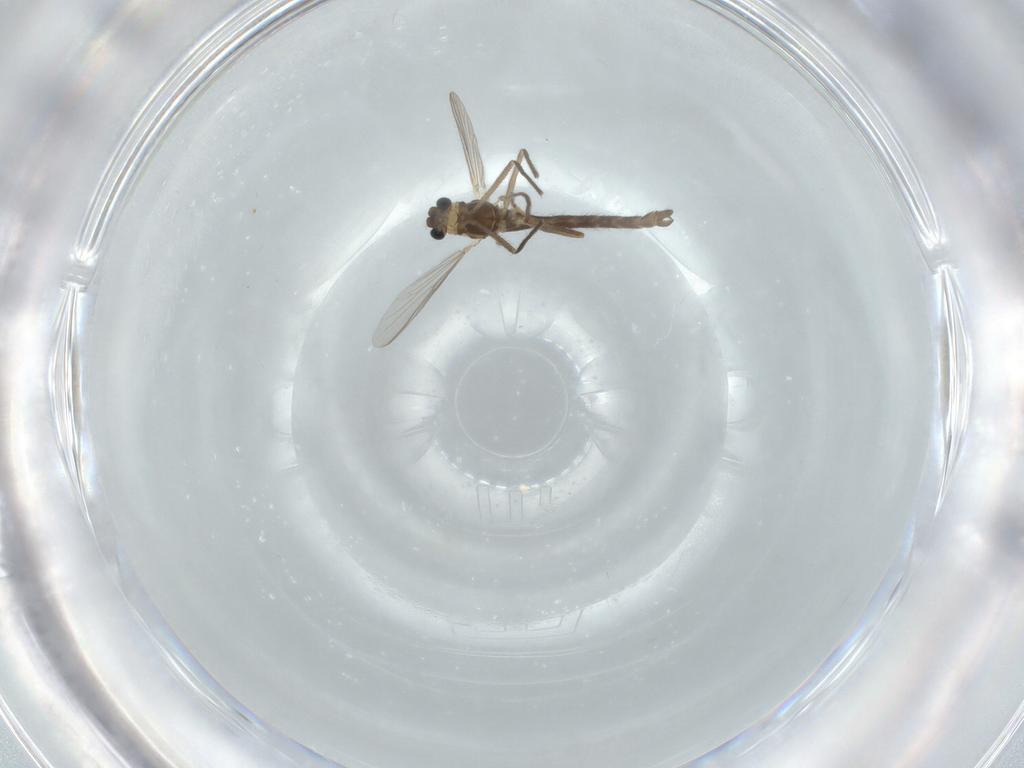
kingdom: Animalia
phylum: Arthropoda
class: Insecta
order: Diptera
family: Chironomidae
